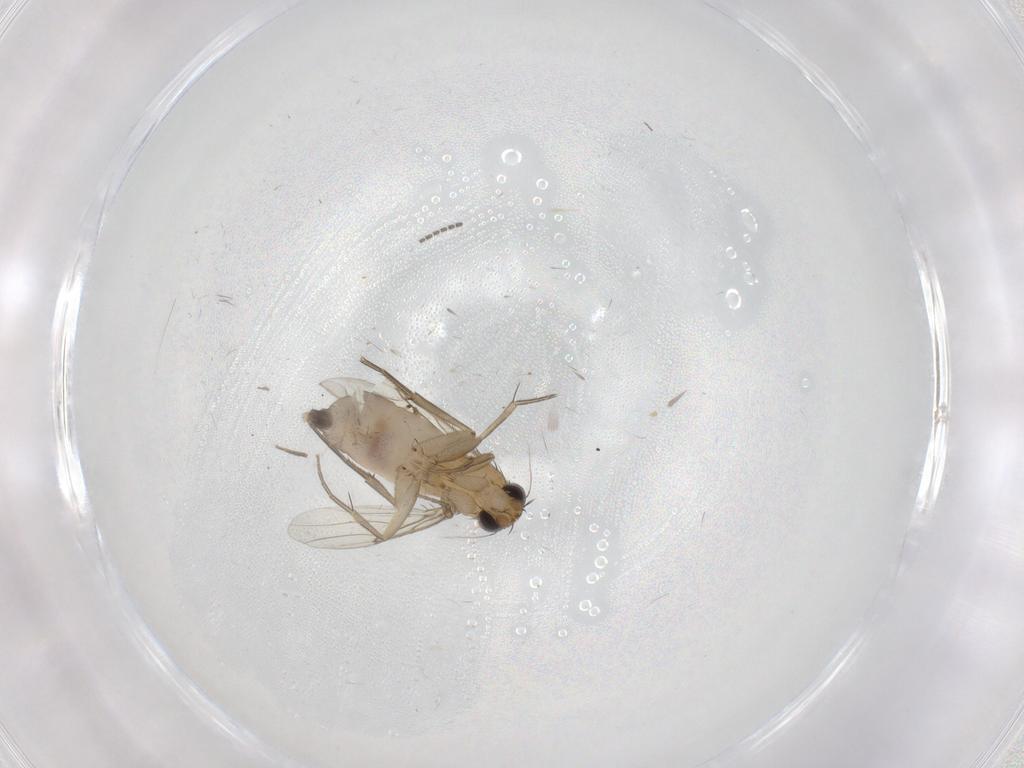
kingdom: Animalia
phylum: Arthropoda
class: Insecta
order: Diptera
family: Phoridae
